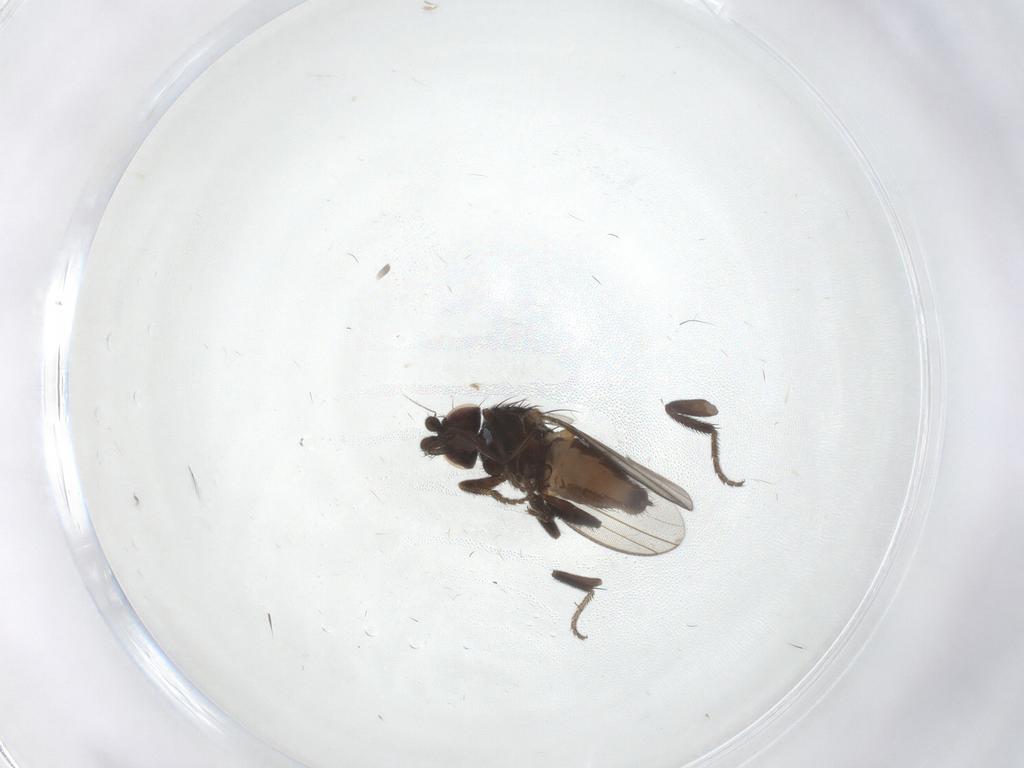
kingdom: Animalia
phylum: Arthropoda
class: Insecta
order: Diptera
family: Milichiidae
